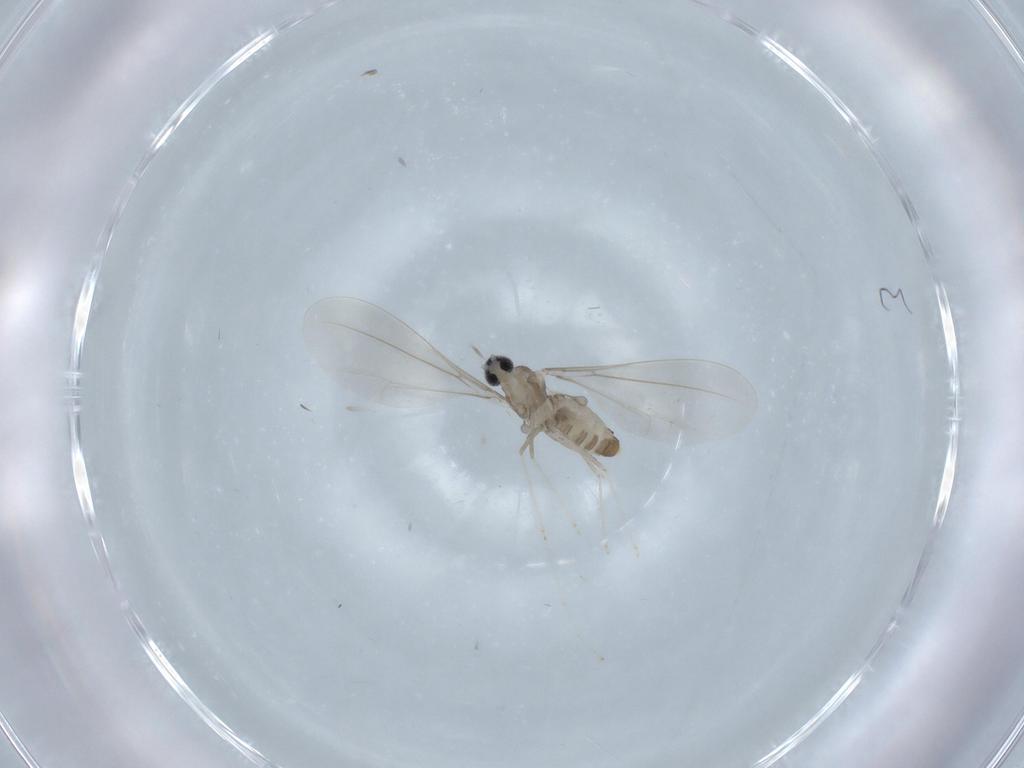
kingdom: Animalia
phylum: Arthropoda
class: Insecta
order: Diptera
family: Cecidomyiidae
